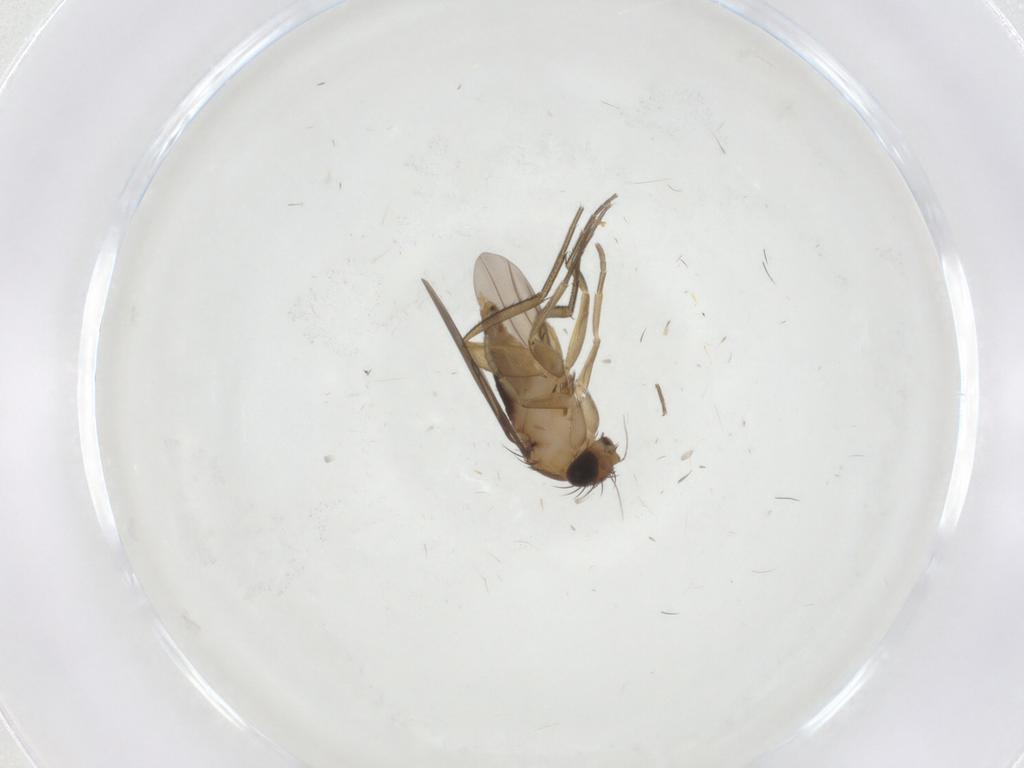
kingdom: Animalia
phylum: Arthropoda
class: Insecta
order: Diptera
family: Phoridae
